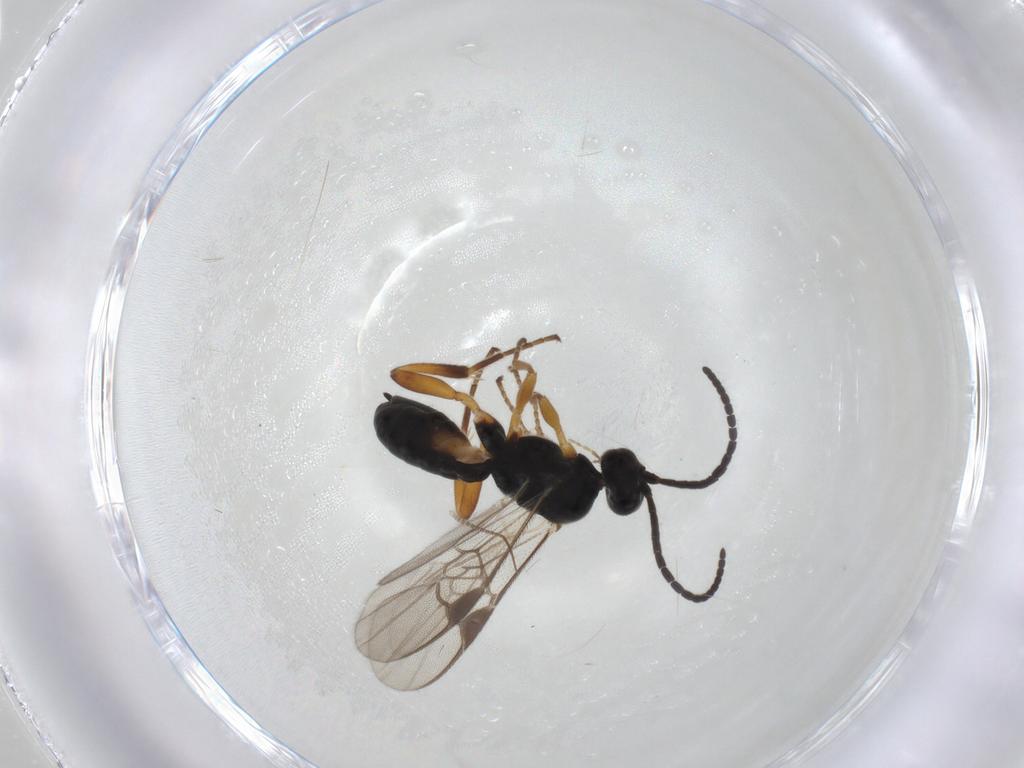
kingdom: Animalia
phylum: Arthropoda
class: Insecta
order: Hymenoptera
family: Braconidae
